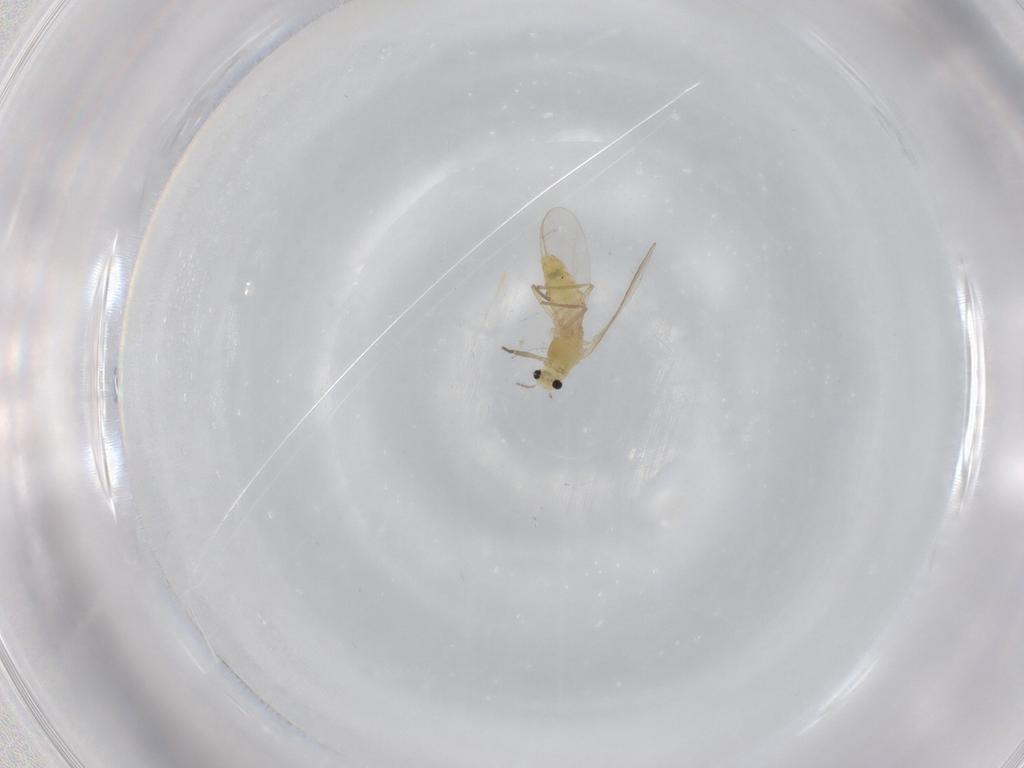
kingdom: Animalia
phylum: Arthropoda
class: Insecta
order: Diptera
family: Chironomidae
